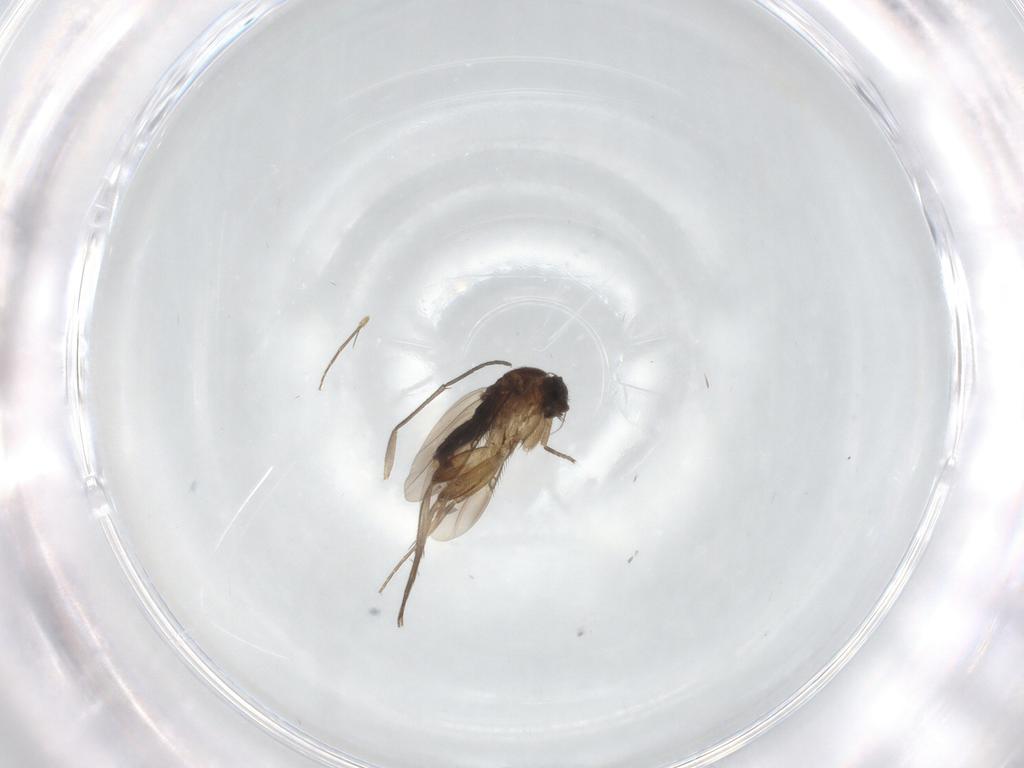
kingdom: Animalia
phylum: Arthropoda
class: Insecta
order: Diptera
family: Phoridae
